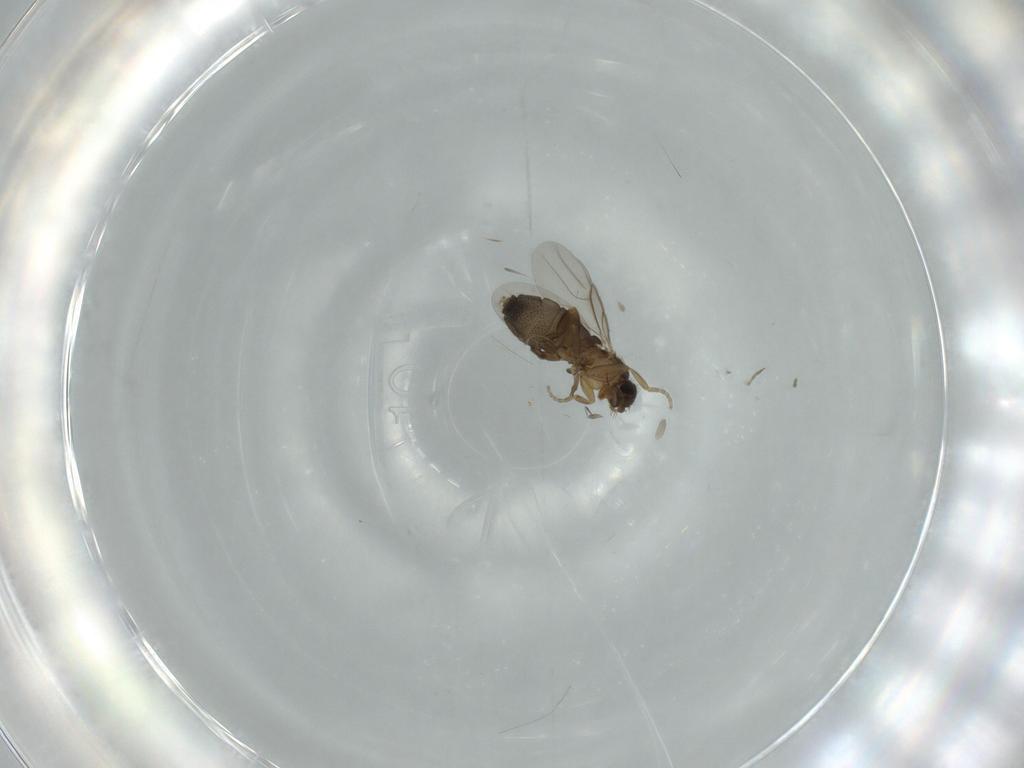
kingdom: Animalia
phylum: Arthropoda
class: Insecta
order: Diptera
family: Phoridae
